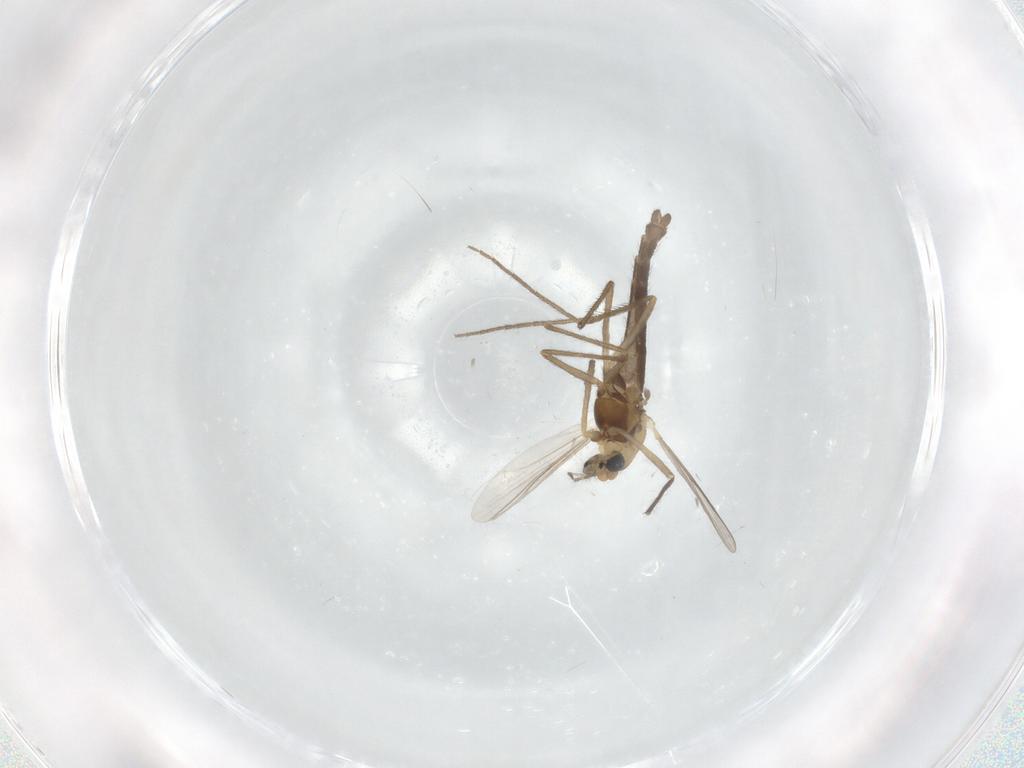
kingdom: Animalia
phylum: Arthropoda
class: Insecta
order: Diptera
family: Chironomidae
